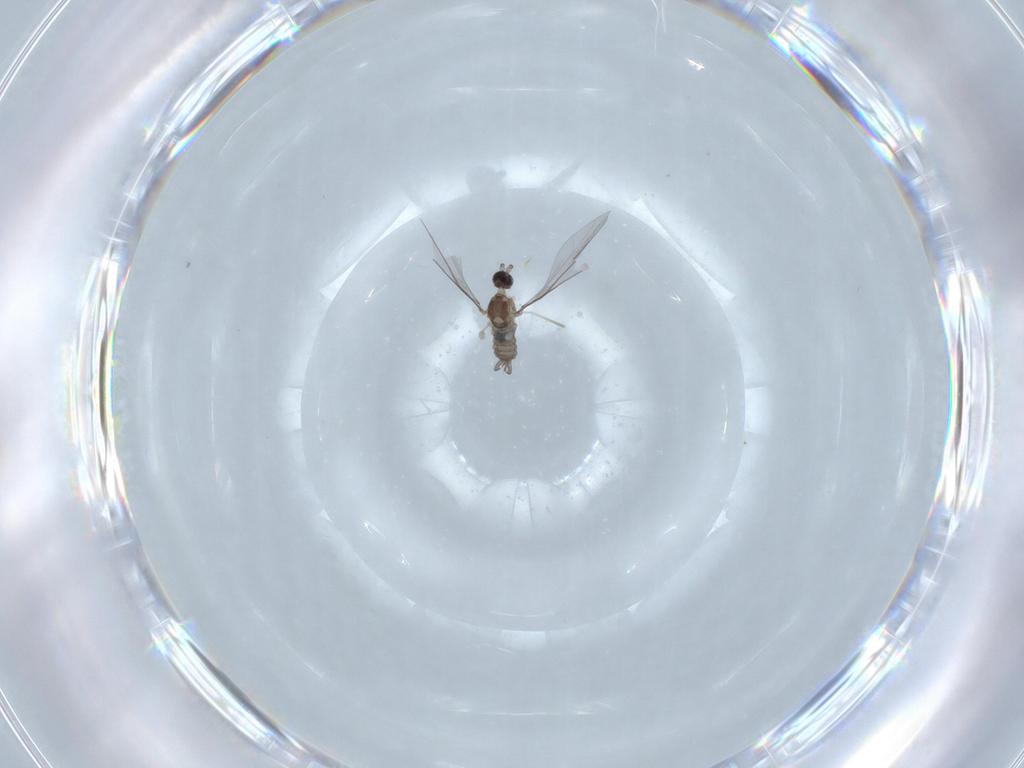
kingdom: Animalia
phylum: Arthropoda
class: Insecta
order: Diptera
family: Cecidomyiidae
